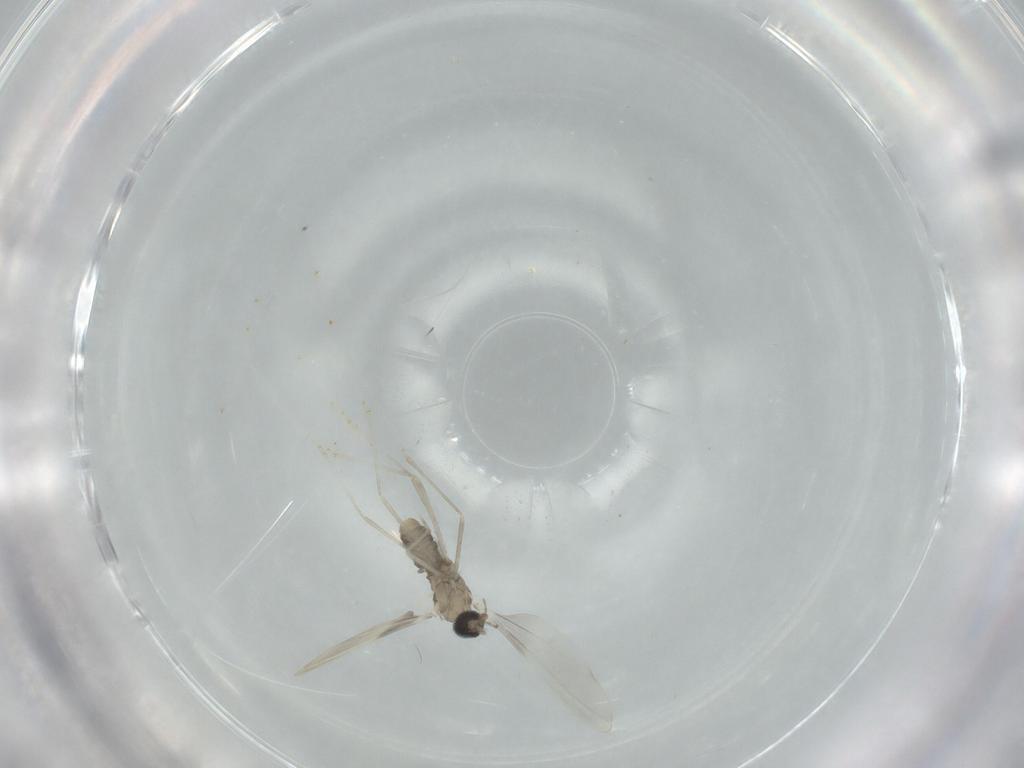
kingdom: Animalia
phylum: Arthropoda
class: Insecta
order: Diptera
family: Cecidomyiidae
